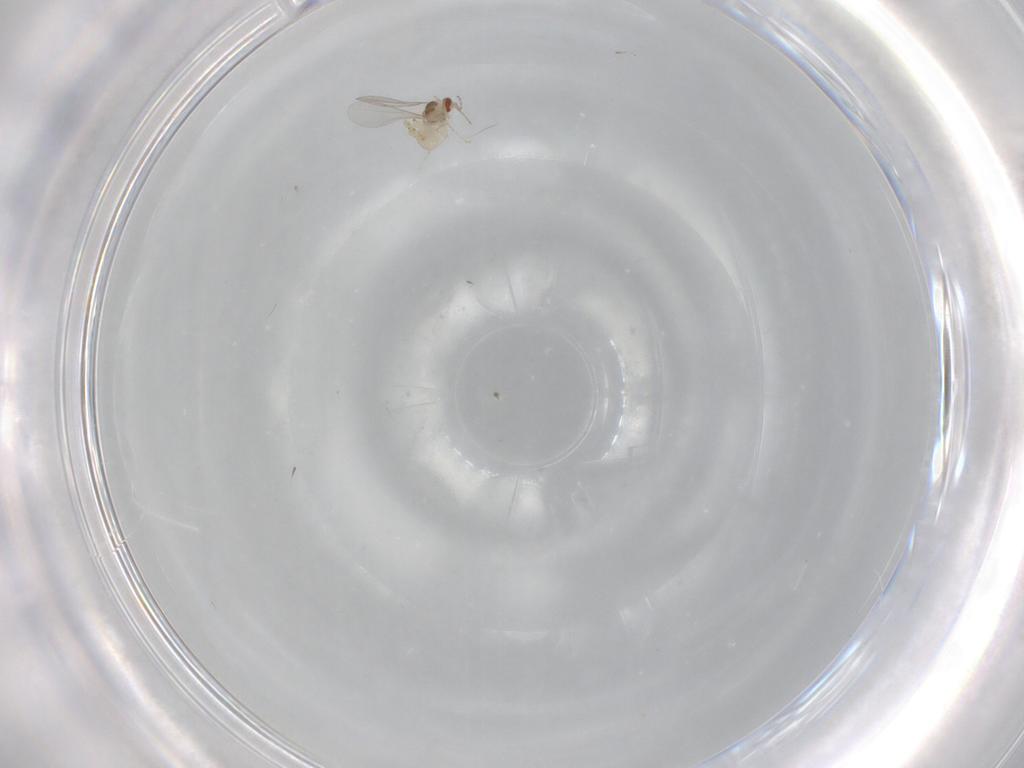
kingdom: Animalia
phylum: Arthropoda
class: Insecta
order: Diptera
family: Cecidomyiidae
